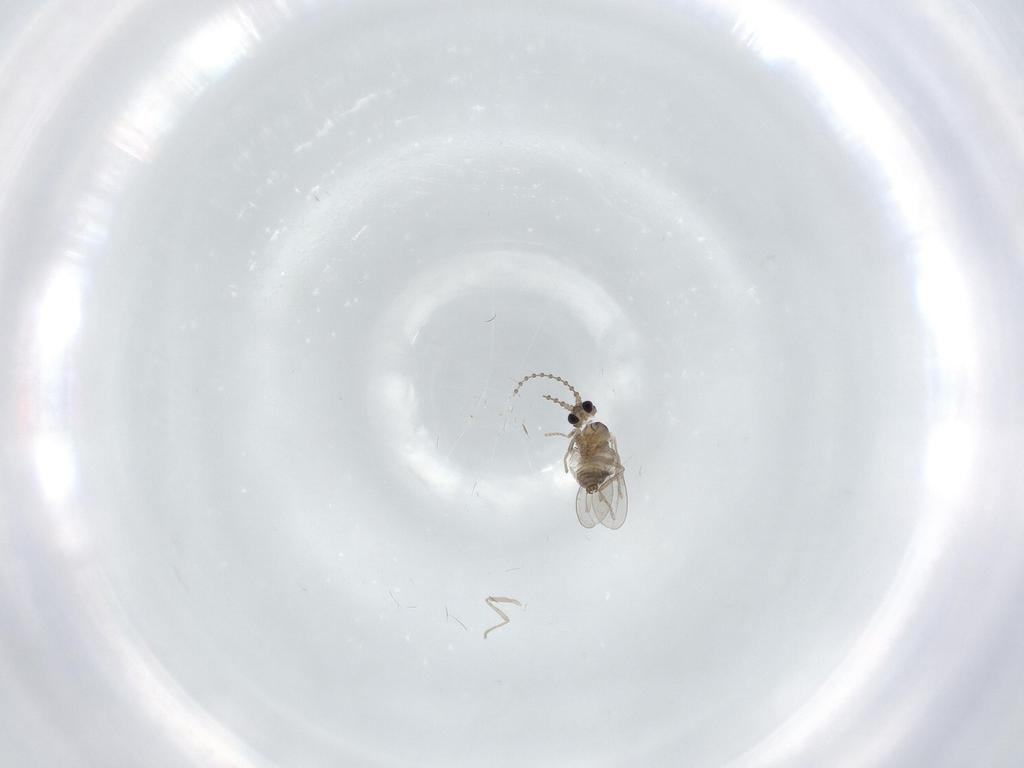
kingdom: Animalia
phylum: Arthropoda
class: Insecta
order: Diptera
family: Cecidomyiidae
